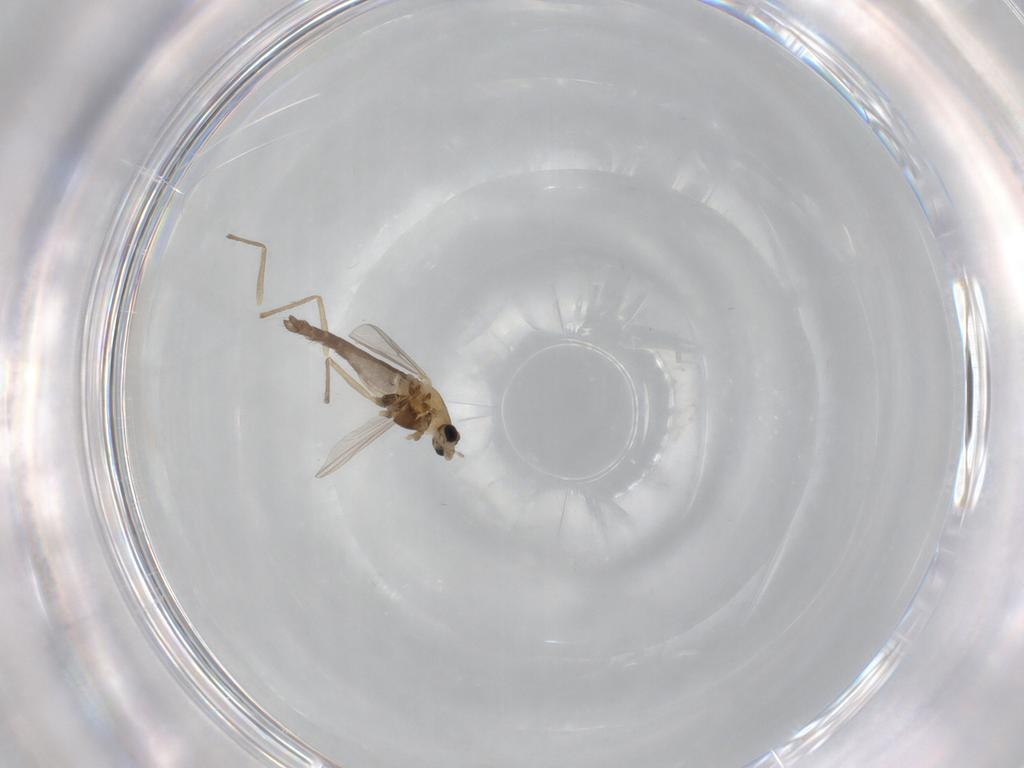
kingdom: Animalia
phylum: Arthropoda
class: Insecta
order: Diptera
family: Chironomidae
